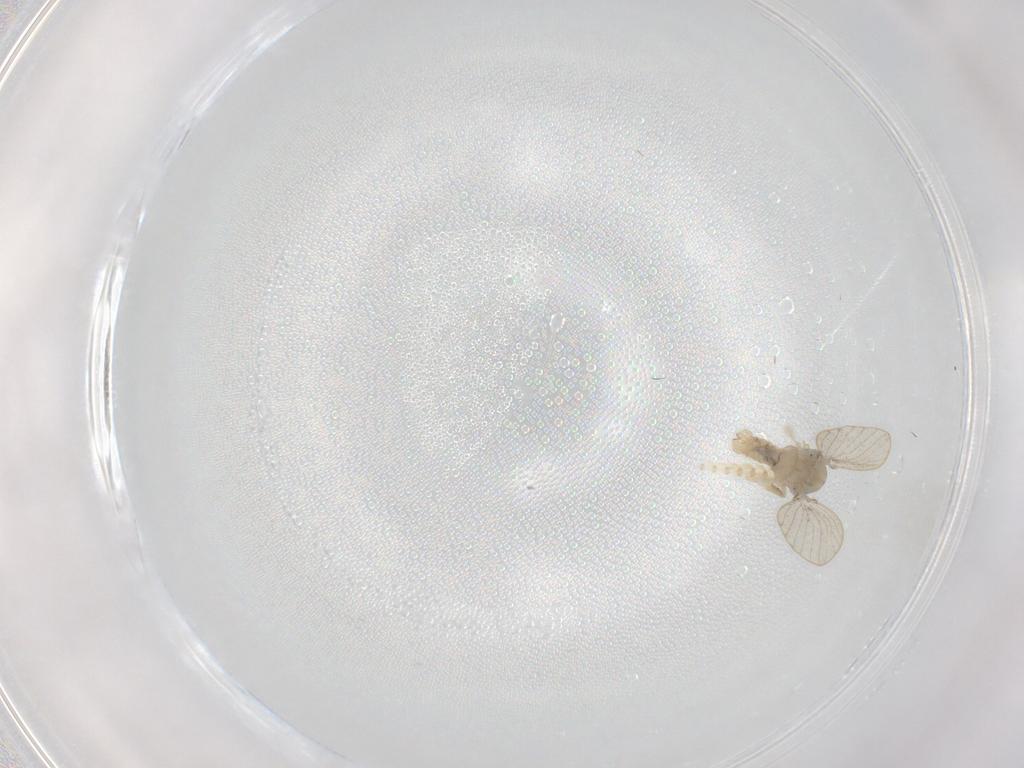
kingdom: Animalia
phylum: Arthropoda
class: Insecta
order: Diptera
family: Psychodidae
